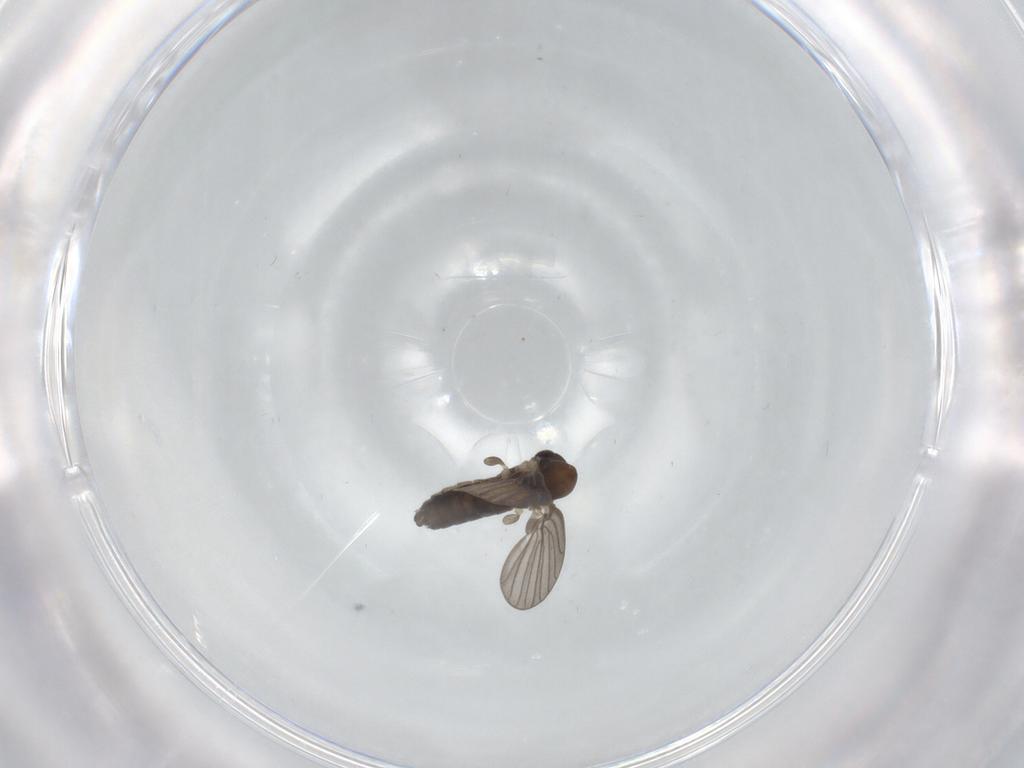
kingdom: Animalia
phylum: Arthropoda
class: Insecta
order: Diptera
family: Psychodidae
